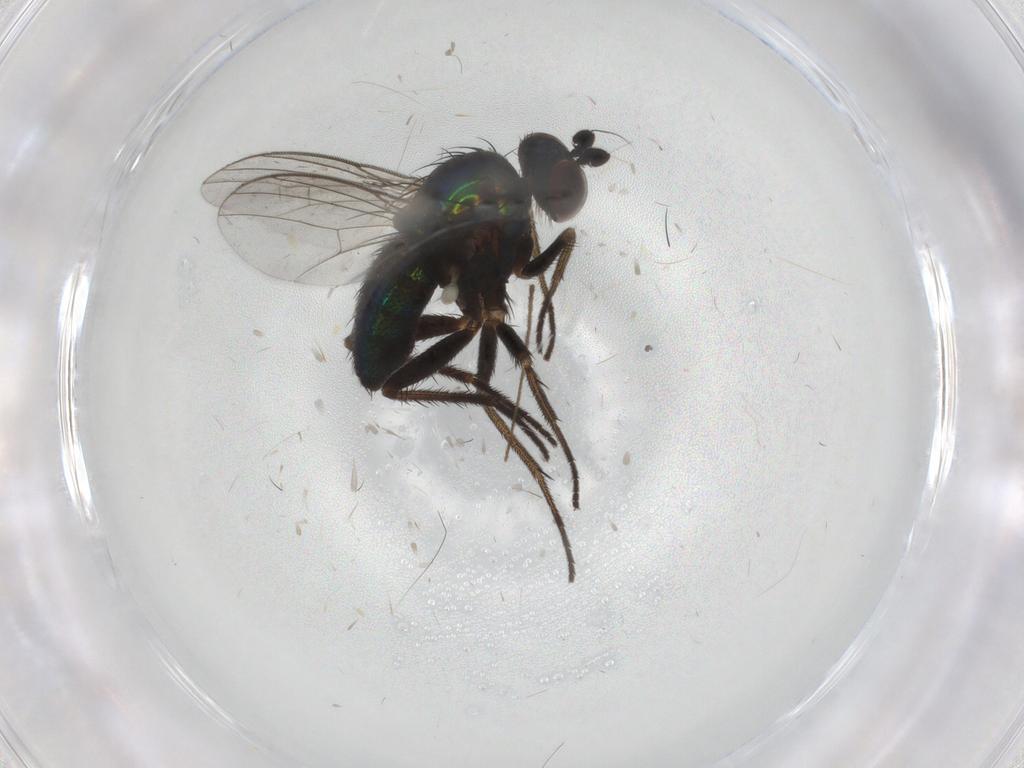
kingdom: Animalia
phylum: Arthropoda
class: Insecta
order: Diptera
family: Dolichopodidae
